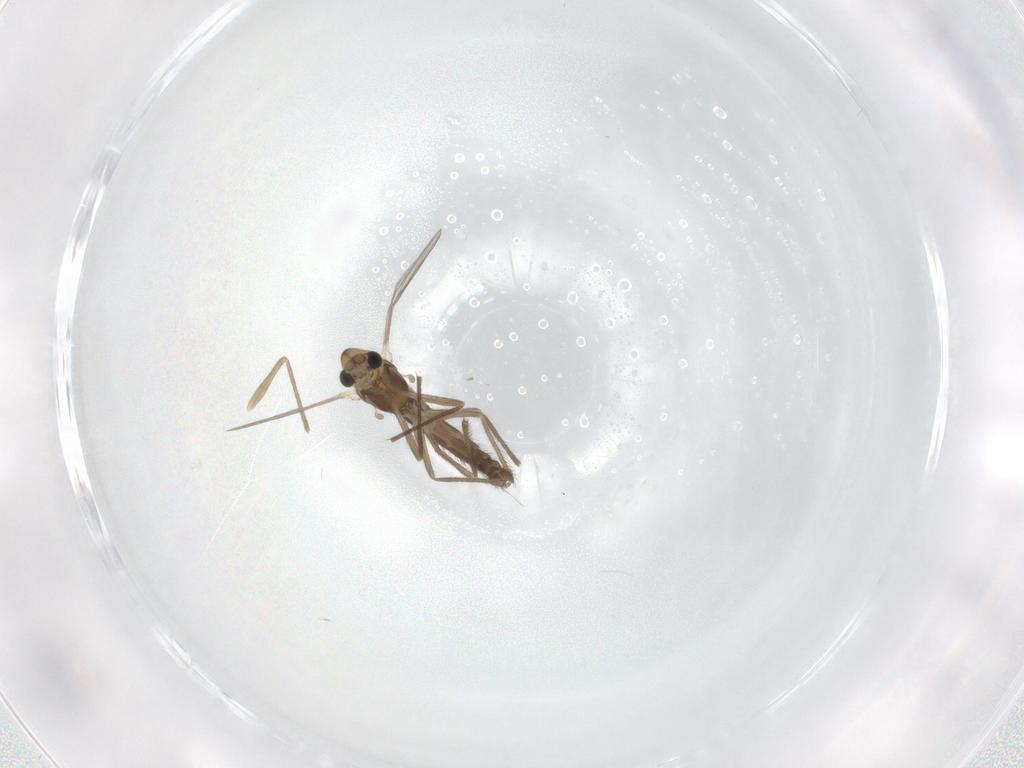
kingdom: Animalia
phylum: Arthropoda
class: Insecta
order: Diptera
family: Chironomidae
